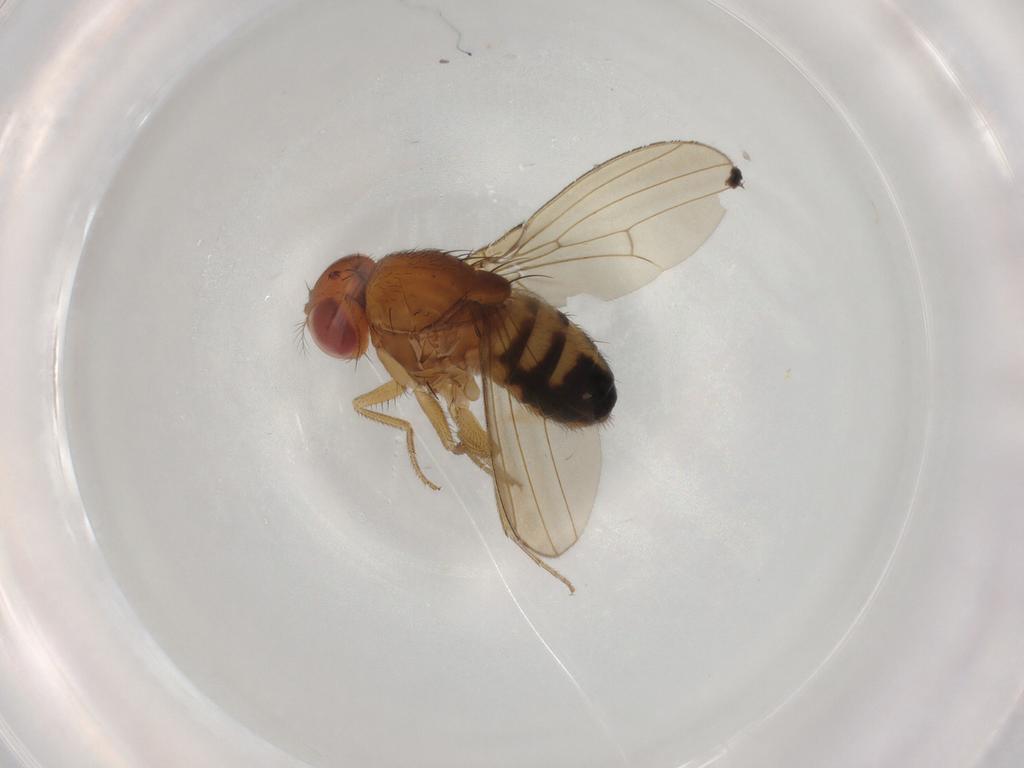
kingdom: Animalia
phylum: Arthropoda
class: Insecta
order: Diptera
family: Drosophilidae
